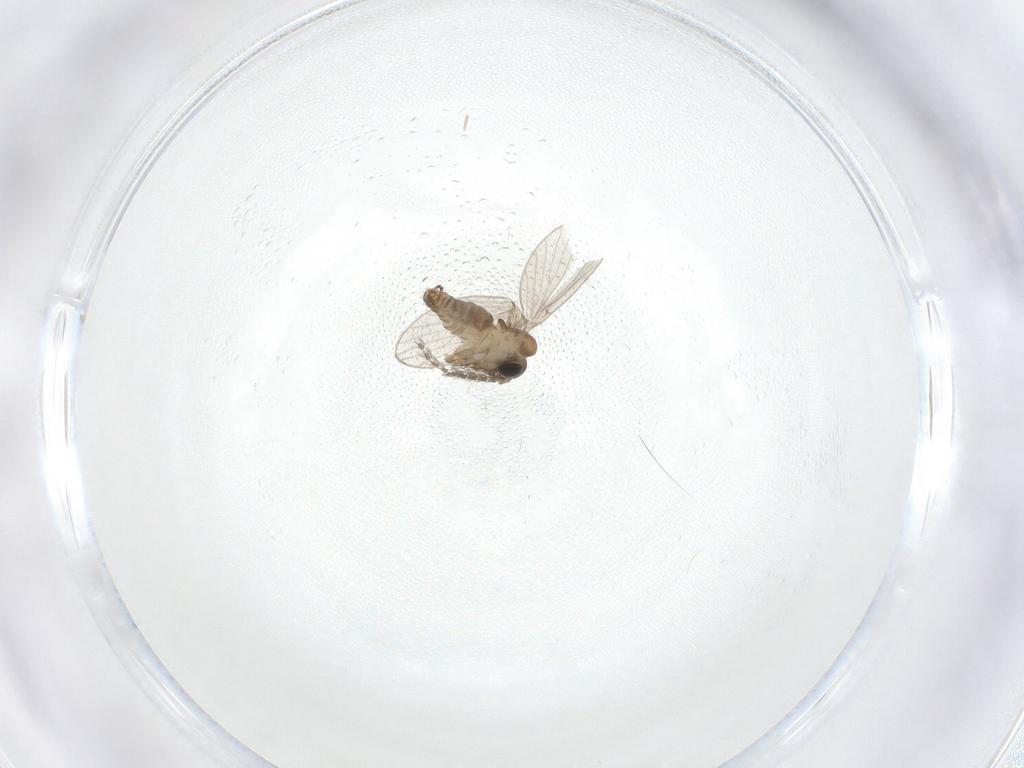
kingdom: Animalia
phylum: Arthropoda
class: Insecta
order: Diptera
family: Psychodidae
